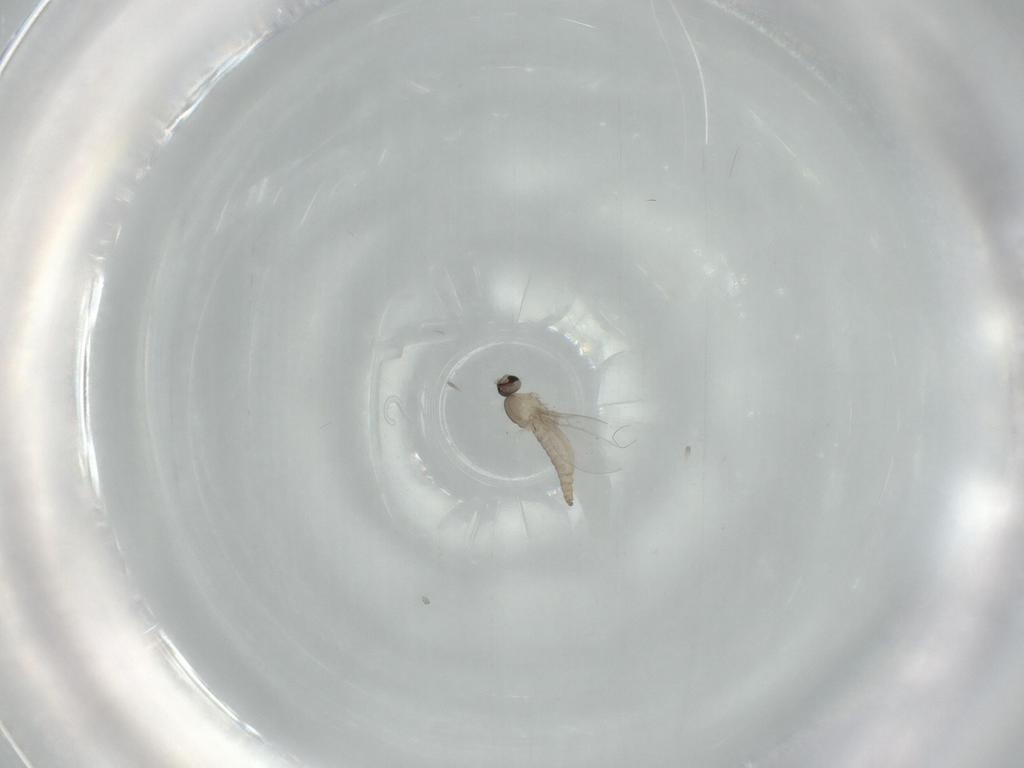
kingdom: Animalia
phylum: Arthropoda
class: Insecta
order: Diptera
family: Cecidomyiidae
